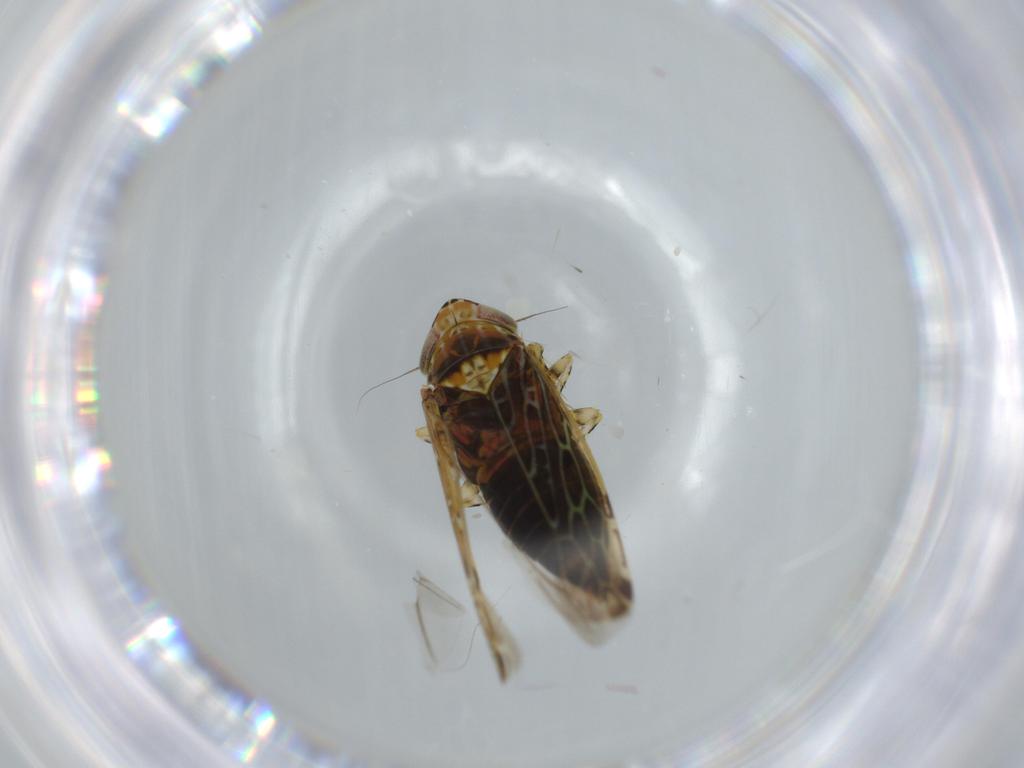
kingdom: Animalia
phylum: Arthropoda
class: Insecta
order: Hemiptera
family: Cicadellidae
